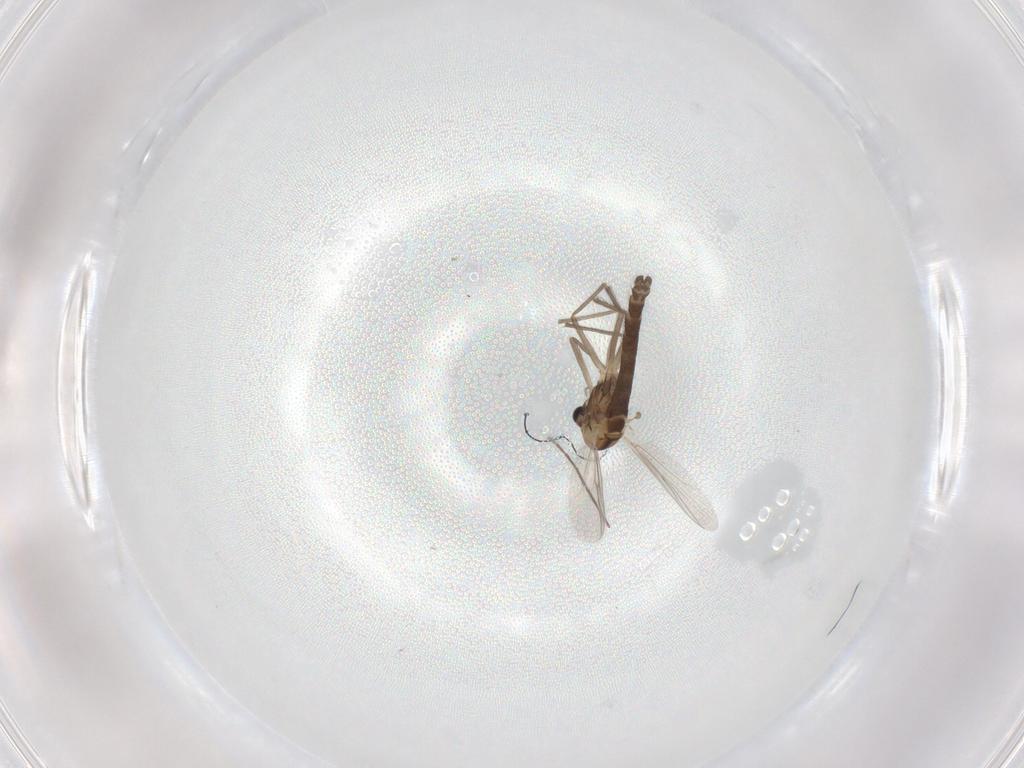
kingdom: Animalia
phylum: Arthropoda
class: Insecta
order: Diptera
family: Chironomidae
